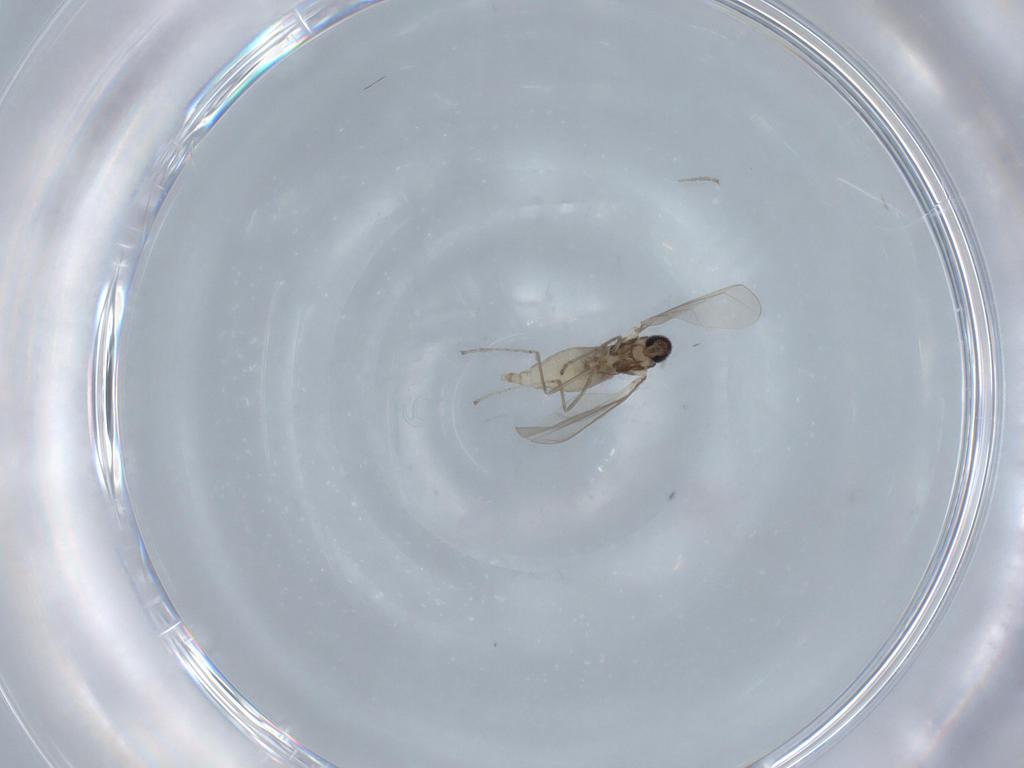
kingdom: Animalia
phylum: Arthropoda
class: Insecta
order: Diptera
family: Cecidomyiidae
